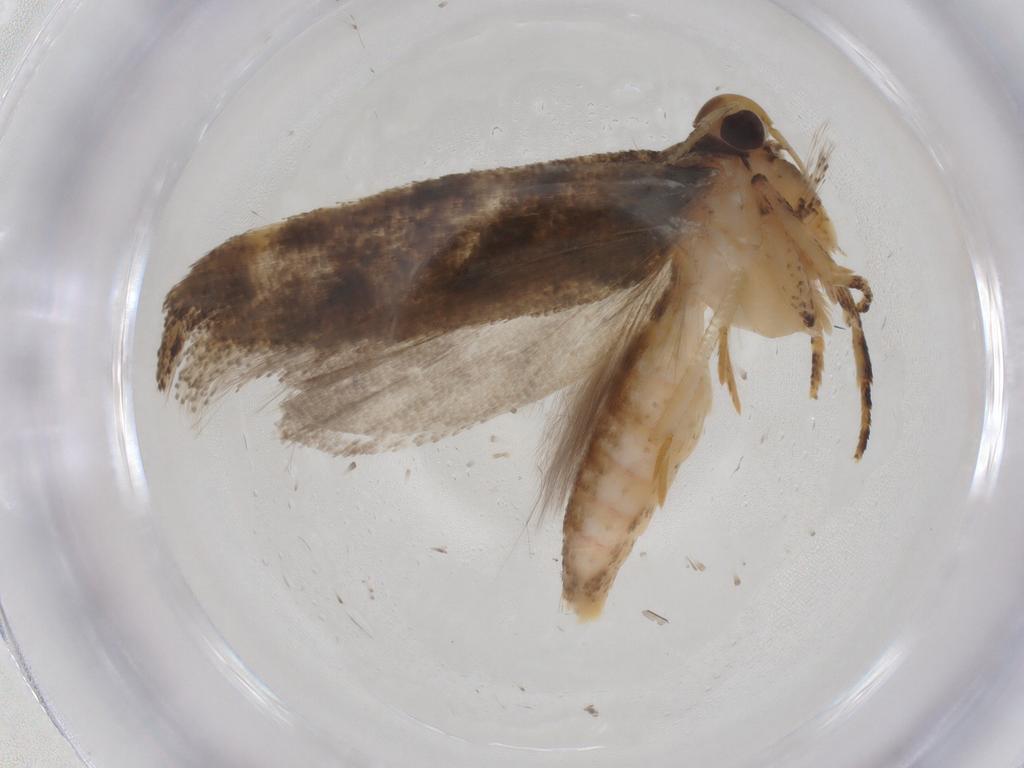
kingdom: Animalia
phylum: Arthropoda
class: Insecta
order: Lepidoptera
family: Gelechiidae
